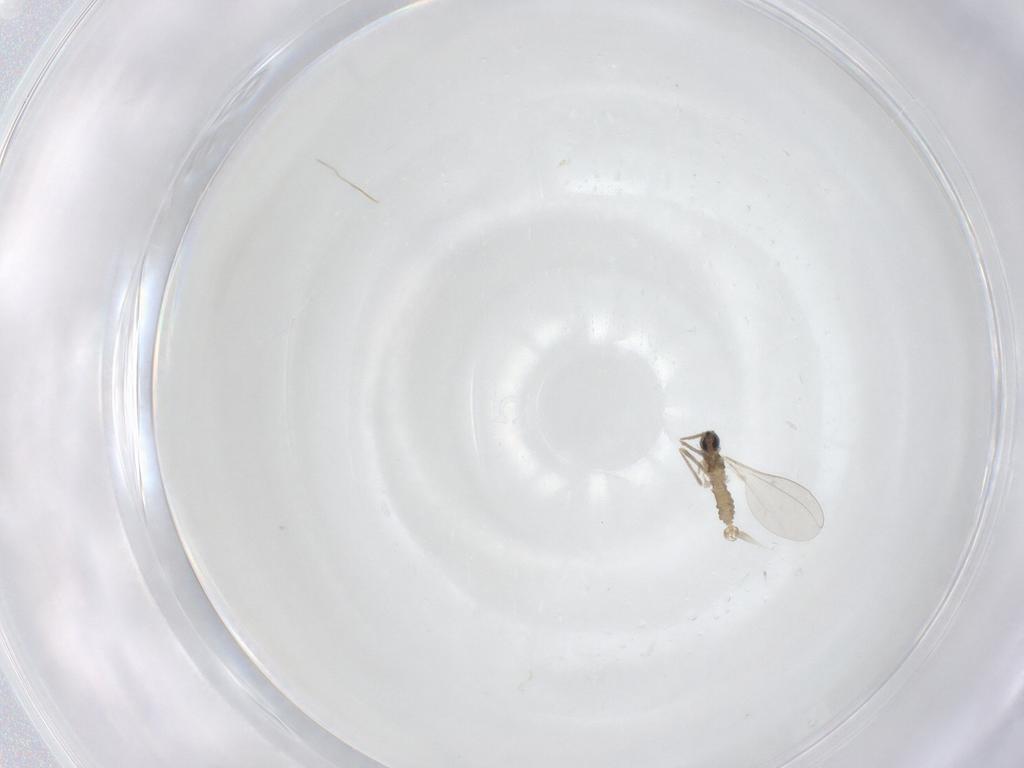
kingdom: Animalia
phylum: Arthropoda
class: Insecta
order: Diptera
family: Cecidomyiidae
